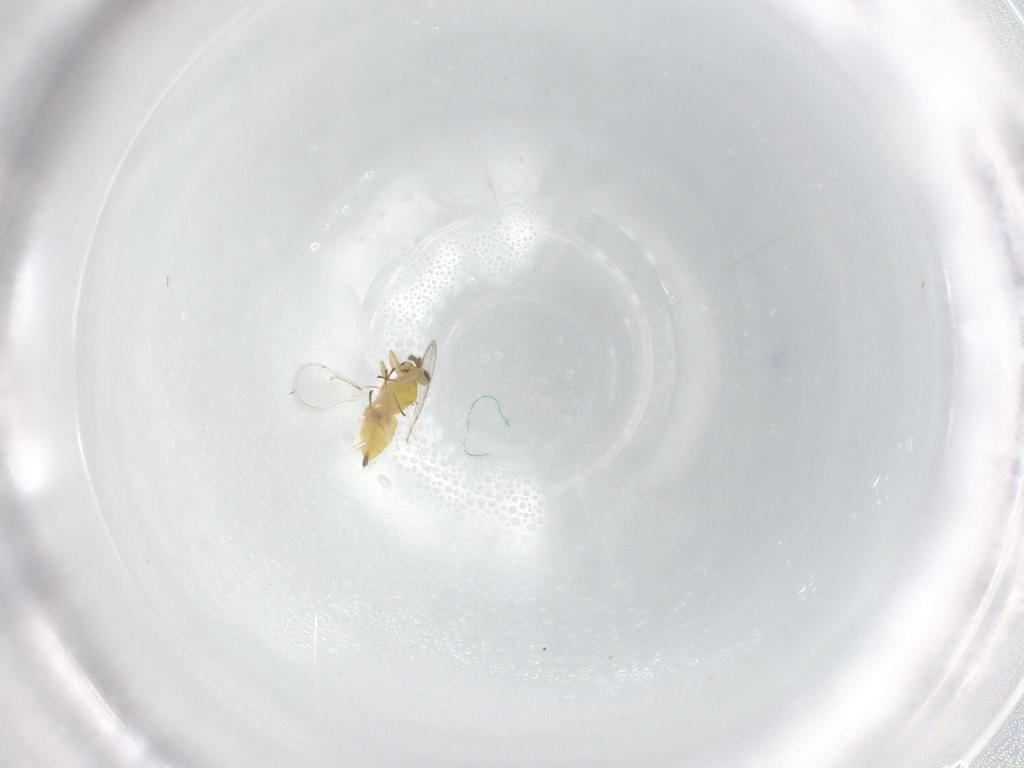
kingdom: Animalia
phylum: Arthropoda
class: Insecta
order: Hymenoptera
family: Eulophidae
